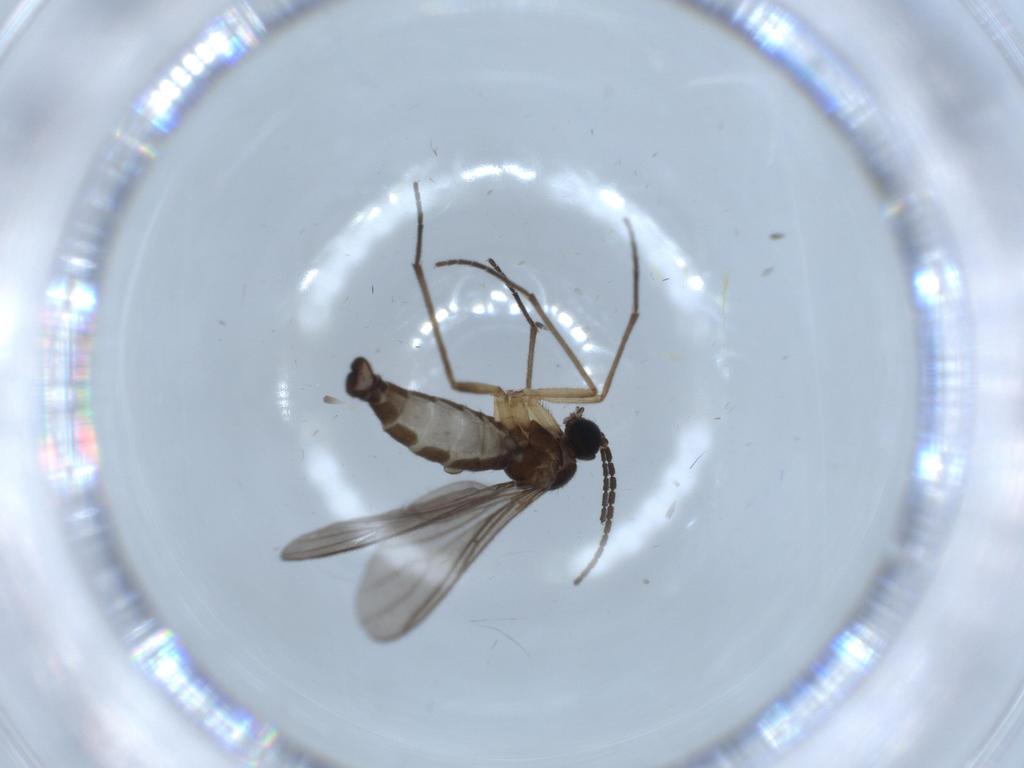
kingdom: Animalia
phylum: Arthropoda
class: Insecta
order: Diptera
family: Sciaridae
